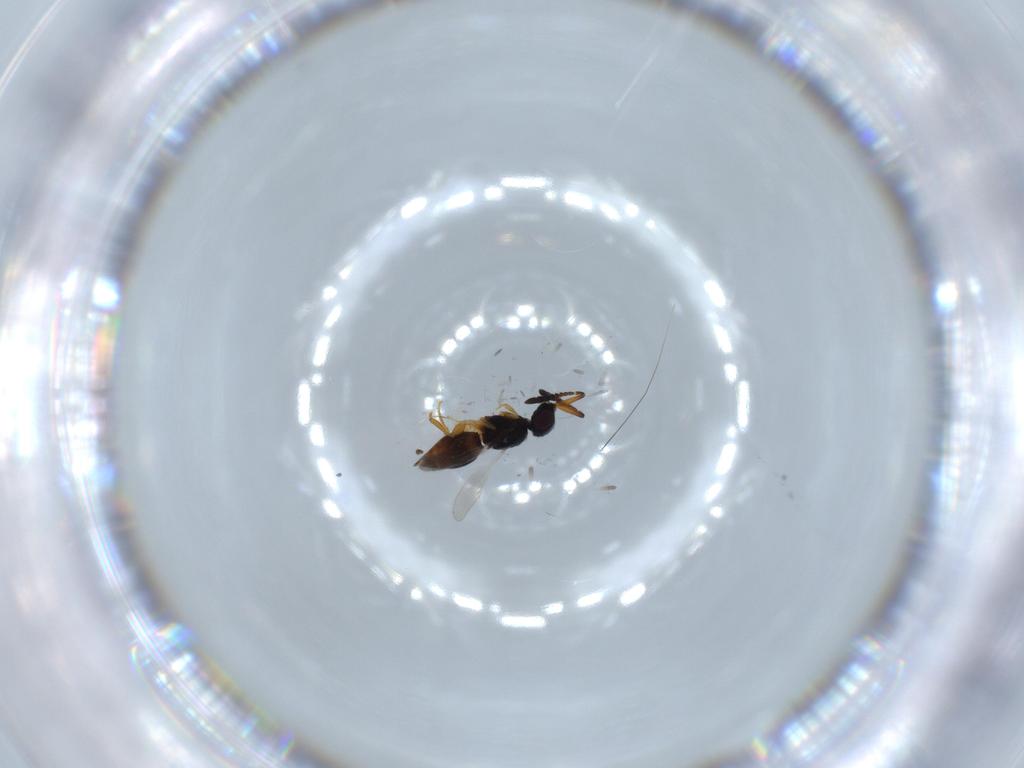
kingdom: Animalia
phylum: Arthropoda
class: Insecta
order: Hymenoptera
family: Ceraphronidae
